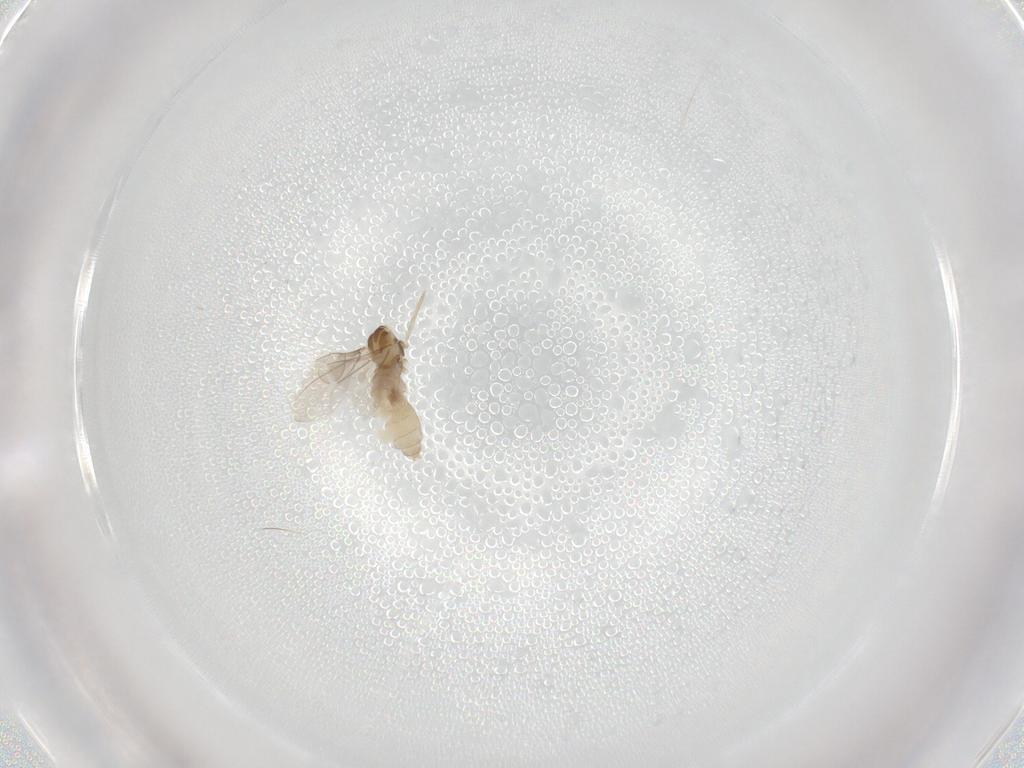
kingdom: Animalia
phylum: Arthropoda
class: Insecta
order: Diptera
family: Cecidomyiidae
